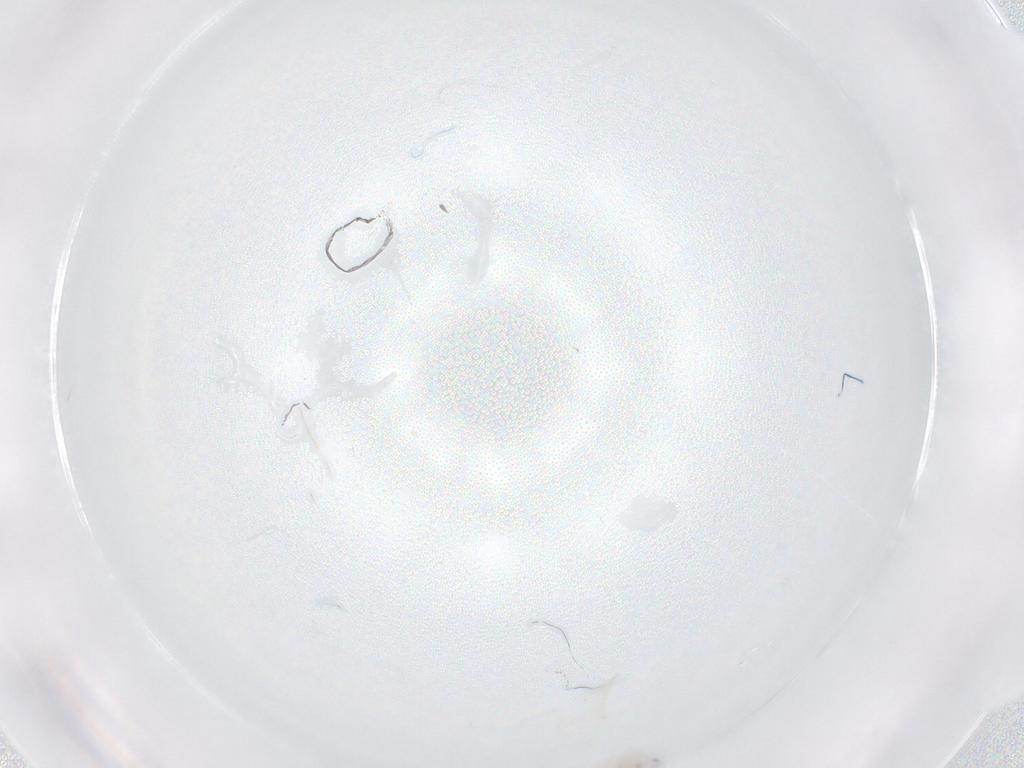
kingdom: Animalia
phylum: Arthropoda
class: Insecta
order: Diptera
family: Cecidomyiidae
